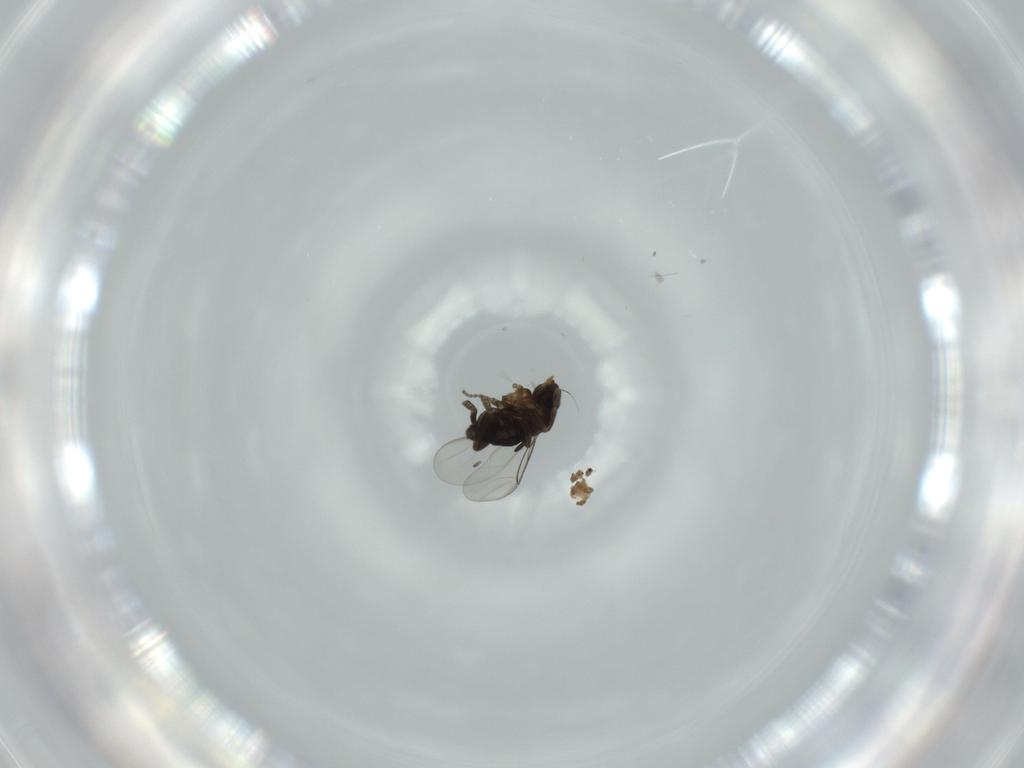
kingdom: Animalia
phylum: Arthropoda
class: Insecta
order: Diptera
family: Phoridae
